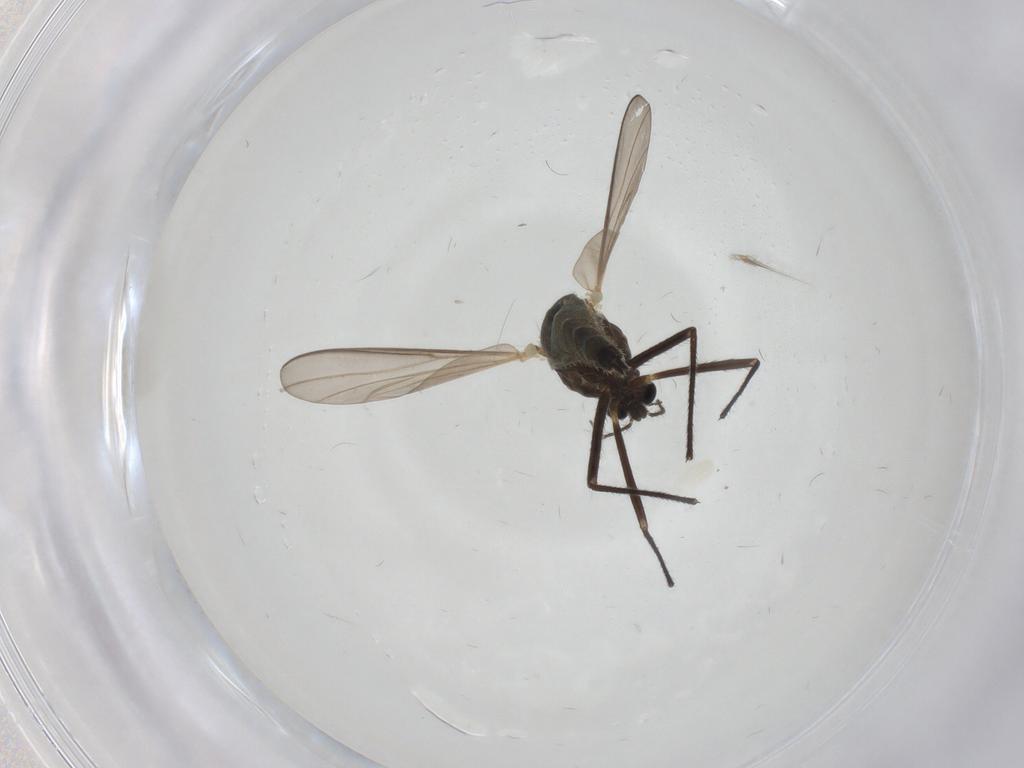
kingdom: Animalia
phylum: Arthropoda
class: Insecta
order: Diptera
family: Chironomidae
